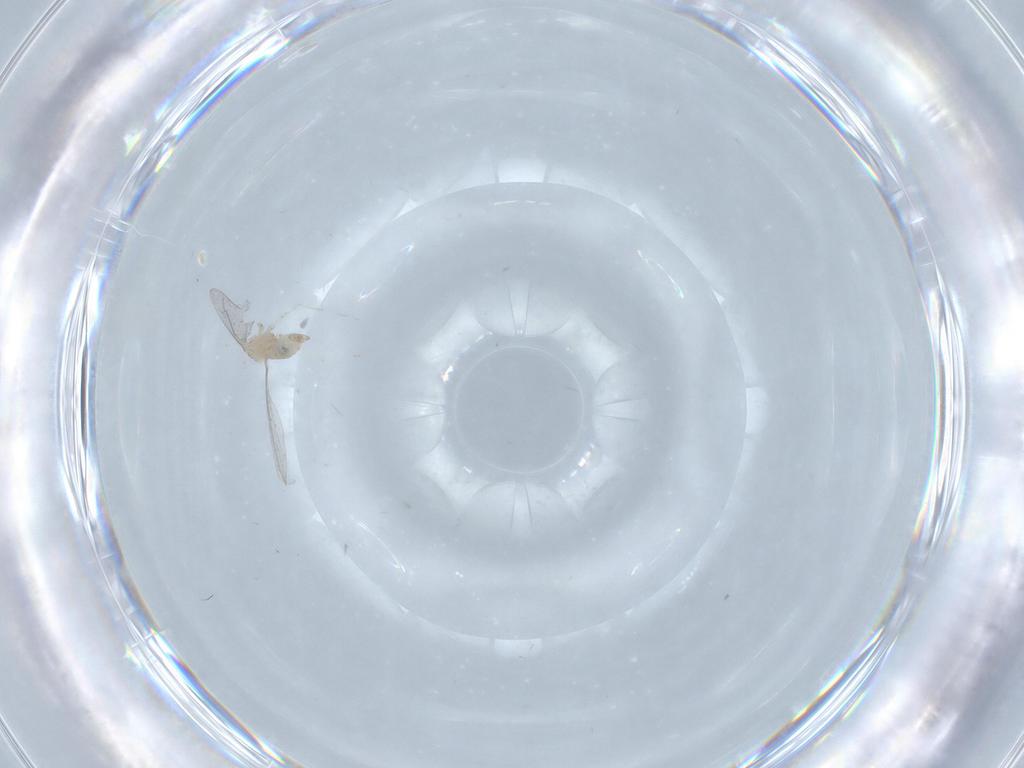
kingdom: Animalia
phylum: Arthropoda
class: Insecta
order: Diptera
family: Cecidomyiidae
